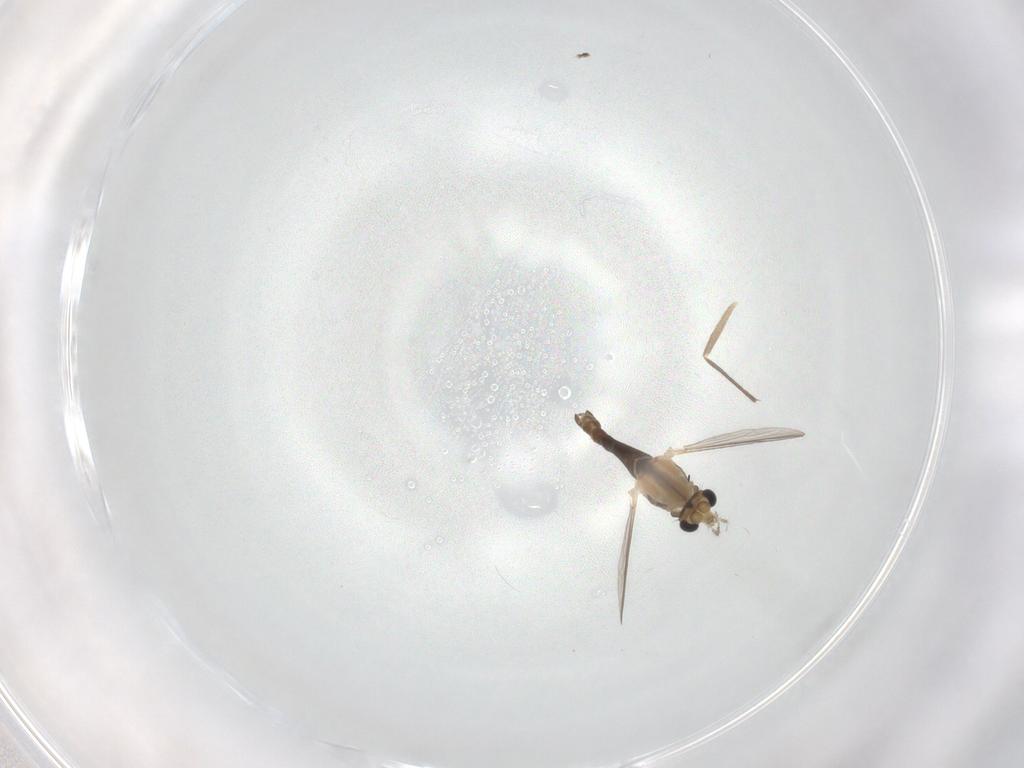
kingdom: Animalia
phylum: Arthropoda
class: Insecta
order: Diptera
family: Chironomidae
